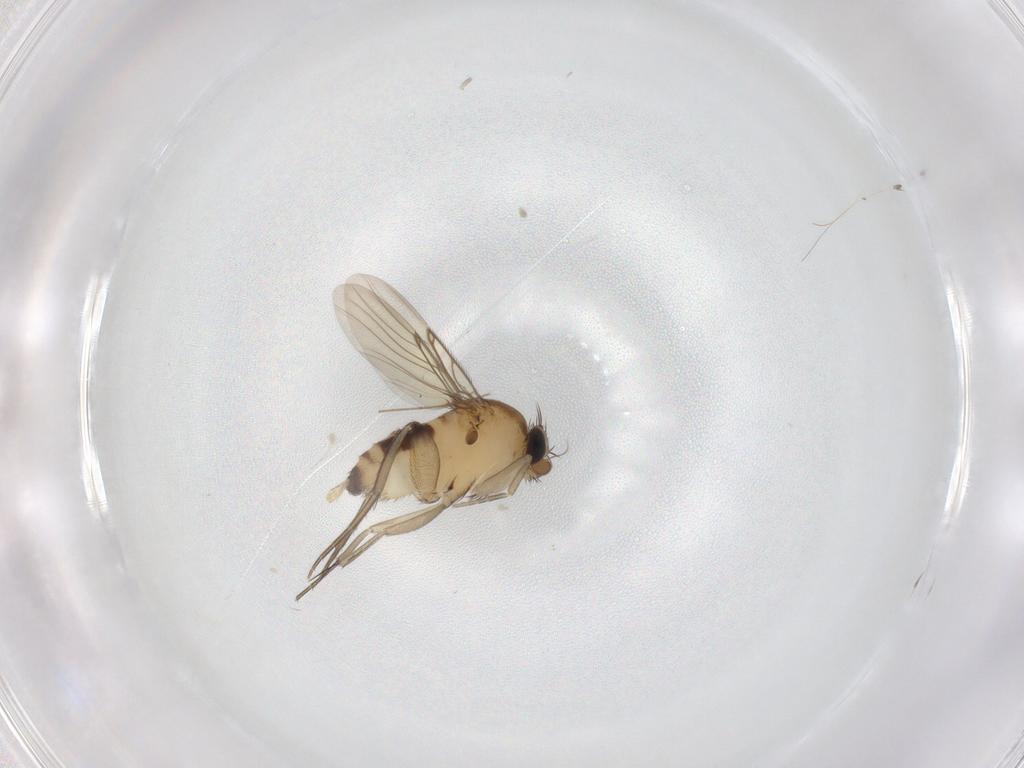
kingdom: Animalia
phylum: Arthropoda
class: Insecta
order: Diptera
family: Phoridae
